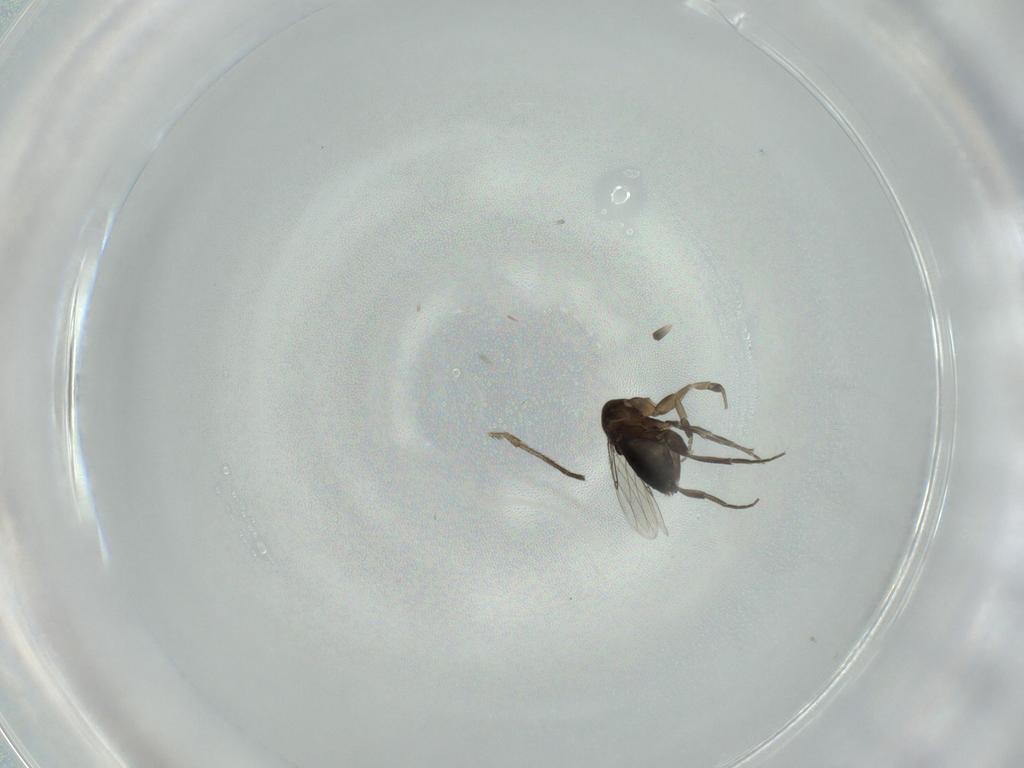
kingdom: Animalia
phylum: Arthropoda
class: Insecta
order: Diptera
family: Phoridae
